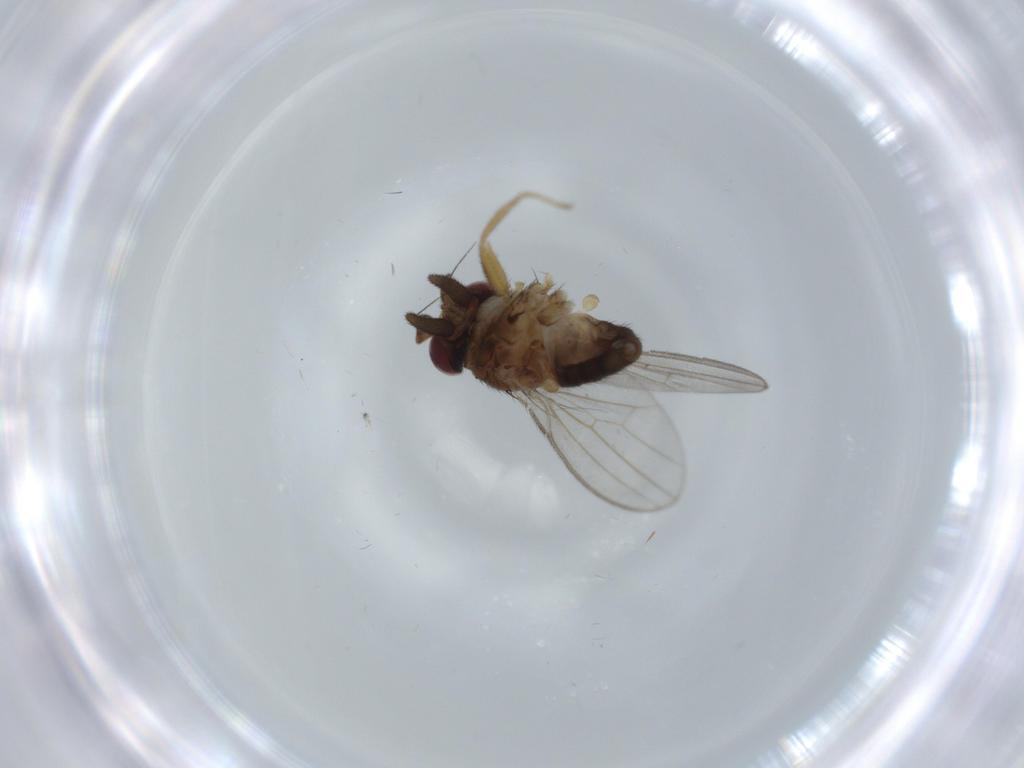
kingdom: Animalia
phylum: Arthropoda
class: Insecta
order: Diptera
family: Milichiidae
